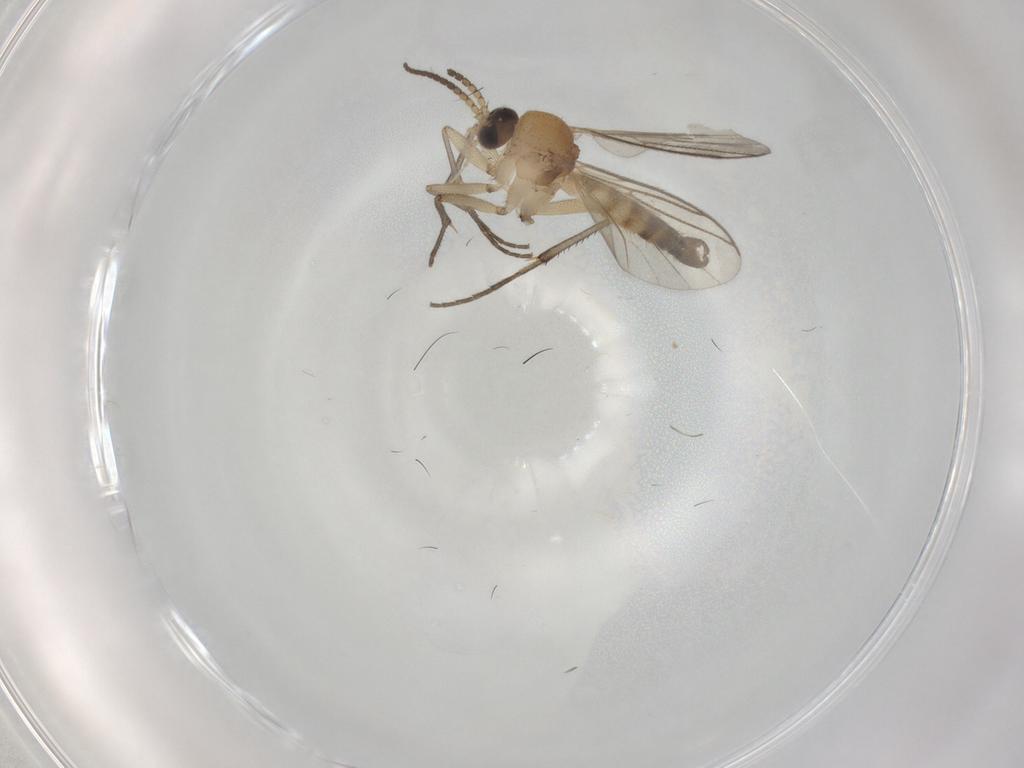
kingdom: Animalia
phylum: Arthropoda
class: Insecta
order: Diptera
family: Mycetophilidae
